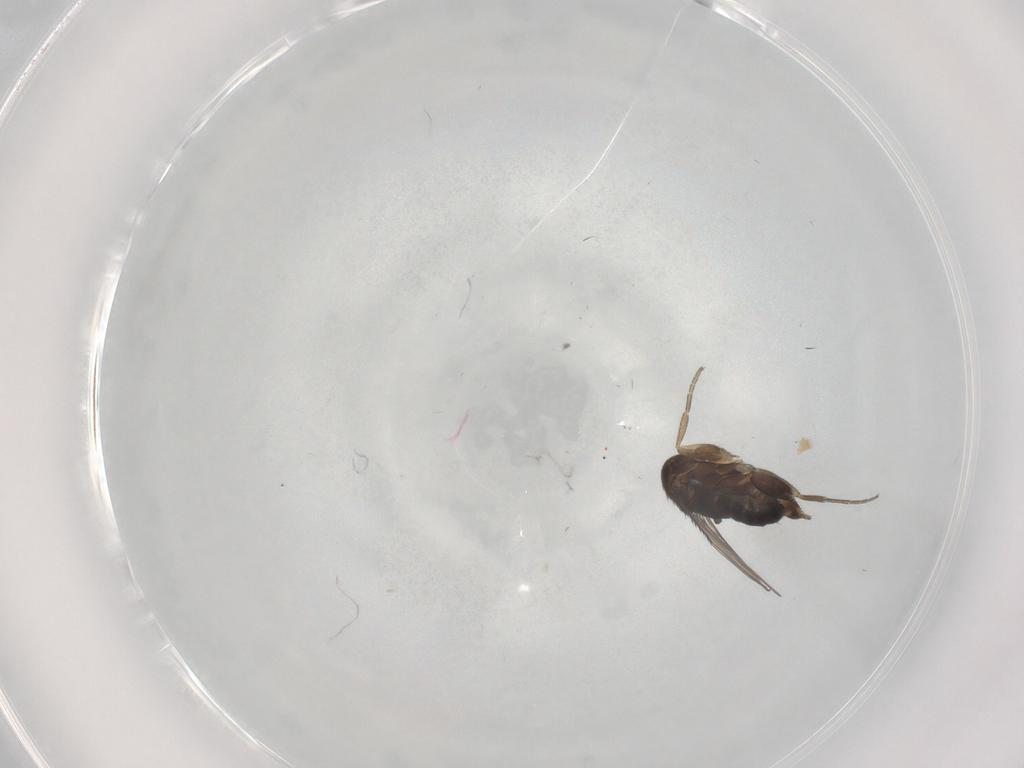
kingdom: Animalia
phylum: Arthropoda
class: Insecta
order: Diptera
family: Phoridae
